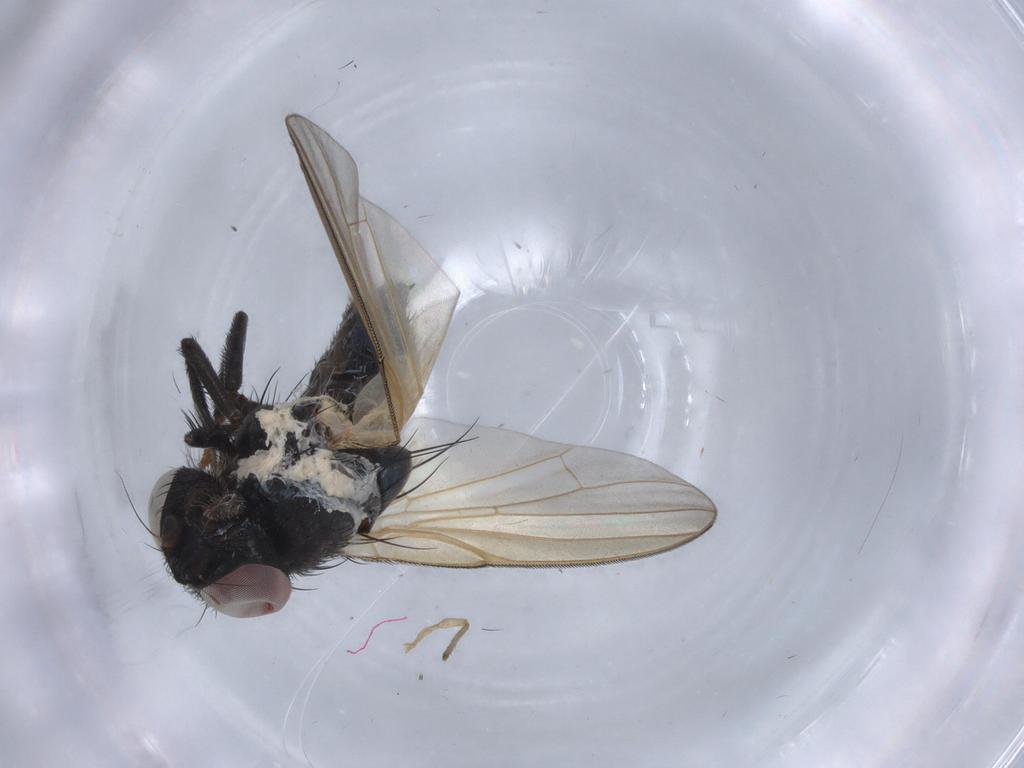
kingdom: Animalia
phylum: Arthropoda
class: Insecta
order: Diptera
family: Lonchaeidae
